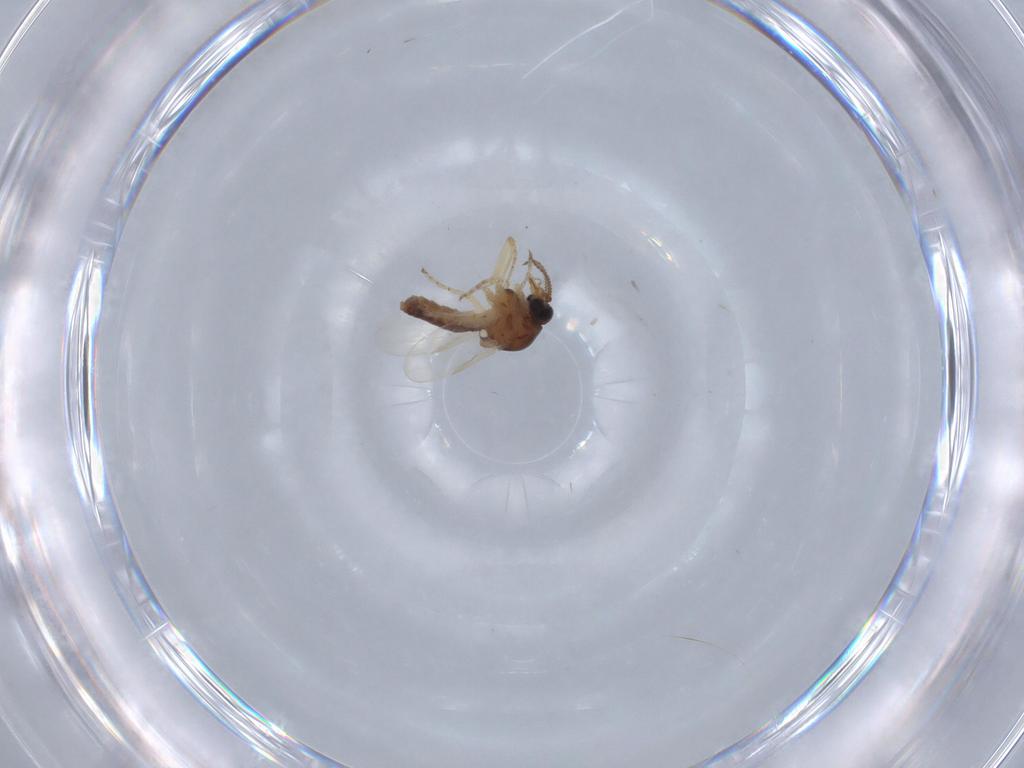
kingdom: Animalia
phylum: Arthropoda
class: Insecta
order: Diptera
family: Ceratopogonidae
